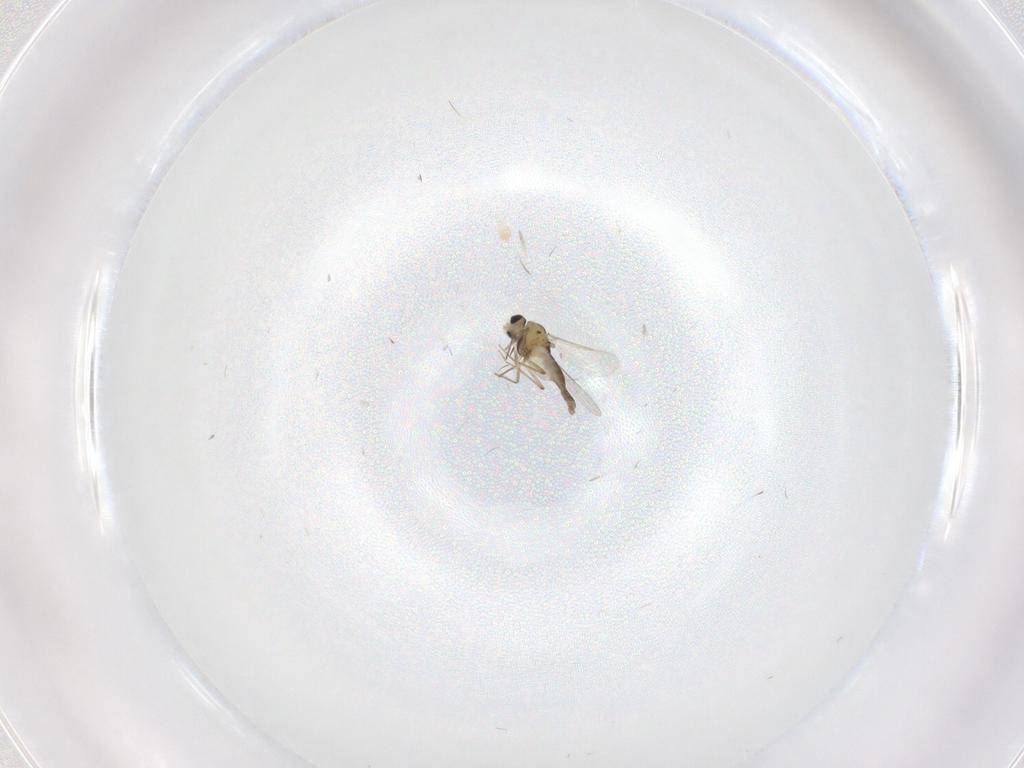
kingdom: Animalia
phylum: Arthropoda
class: Insecta
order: Diptera
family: Chironomidae
